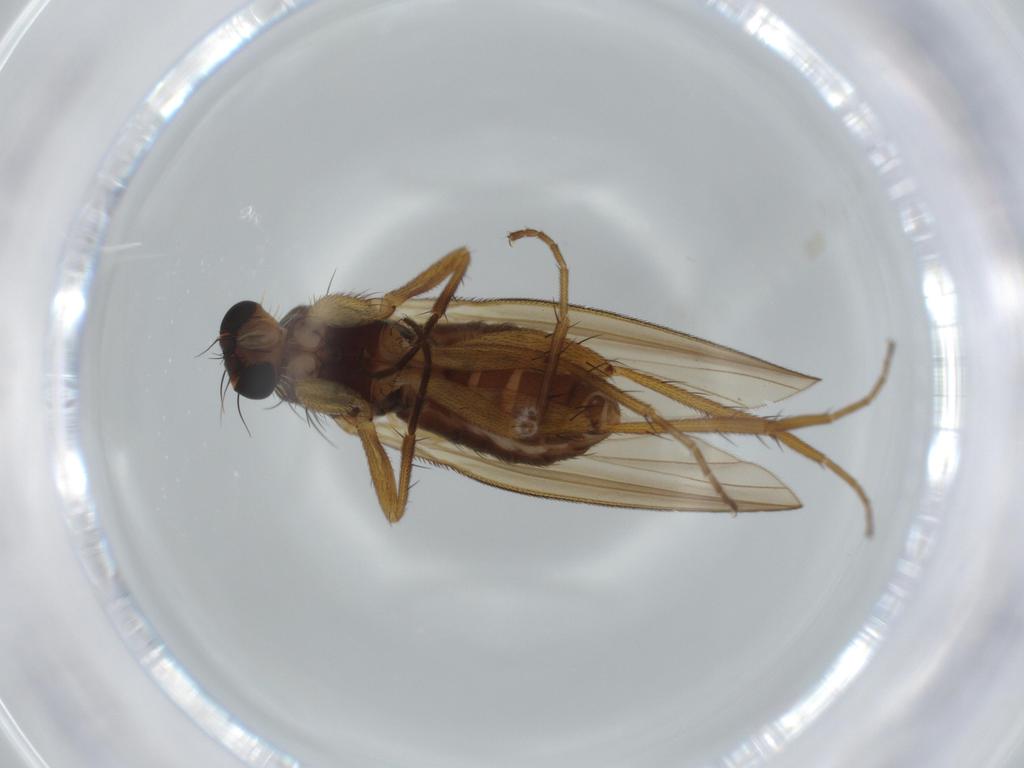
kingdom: Animalia
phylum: Arthropoda
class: Insecta
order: Diptera
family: Lonchopteridae
